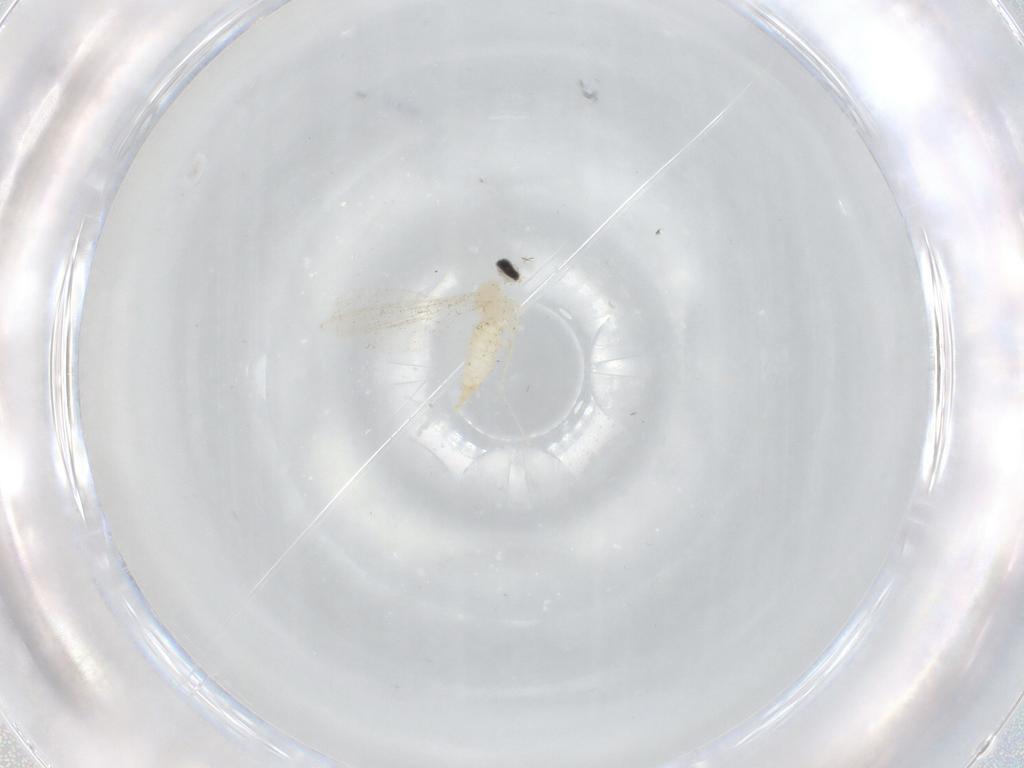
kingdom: Animalia
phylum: Arthropoda
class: Insecta
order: Diptera
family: Cecidomyiidae
